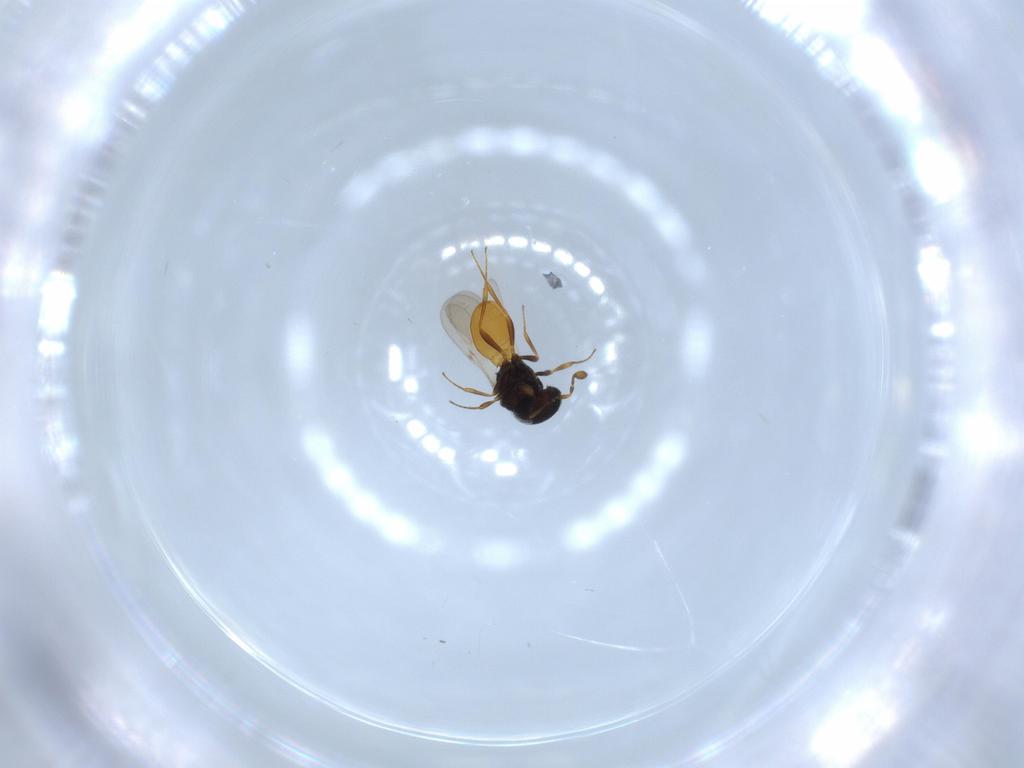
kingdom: Animalia
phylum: Arthropoda
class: Insecta
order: Hymenoptera
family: Scelionidae
